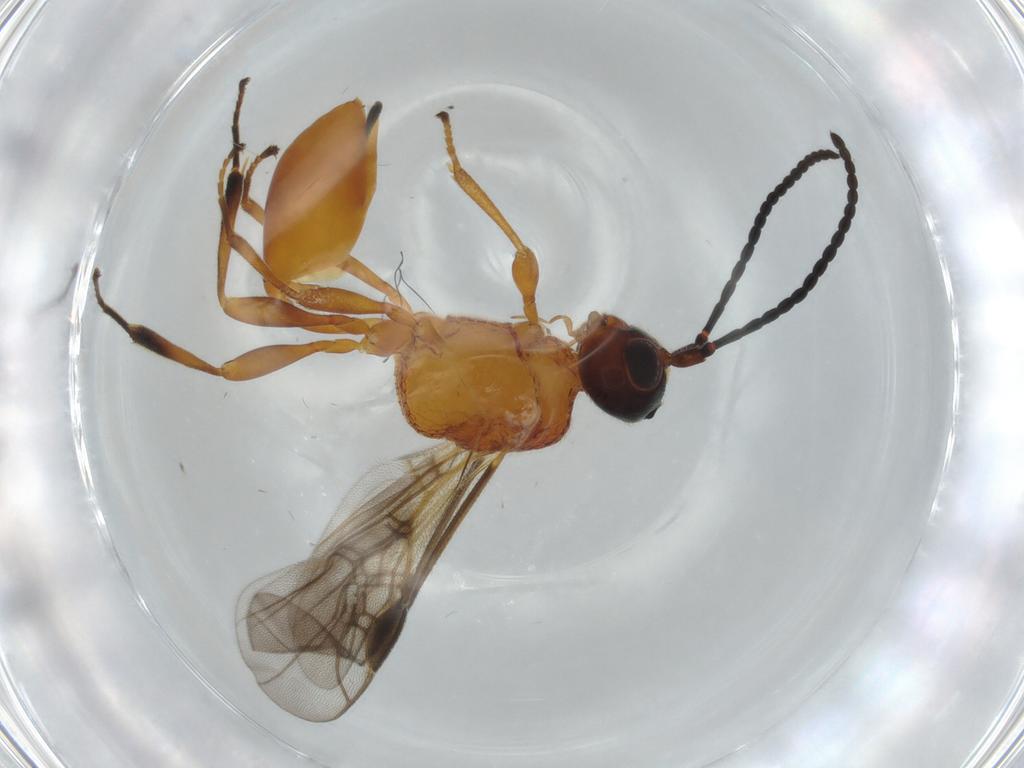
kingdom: Animalia
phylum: Arthropoda
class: Insecta
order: Hymenoptera
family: Braconidae
